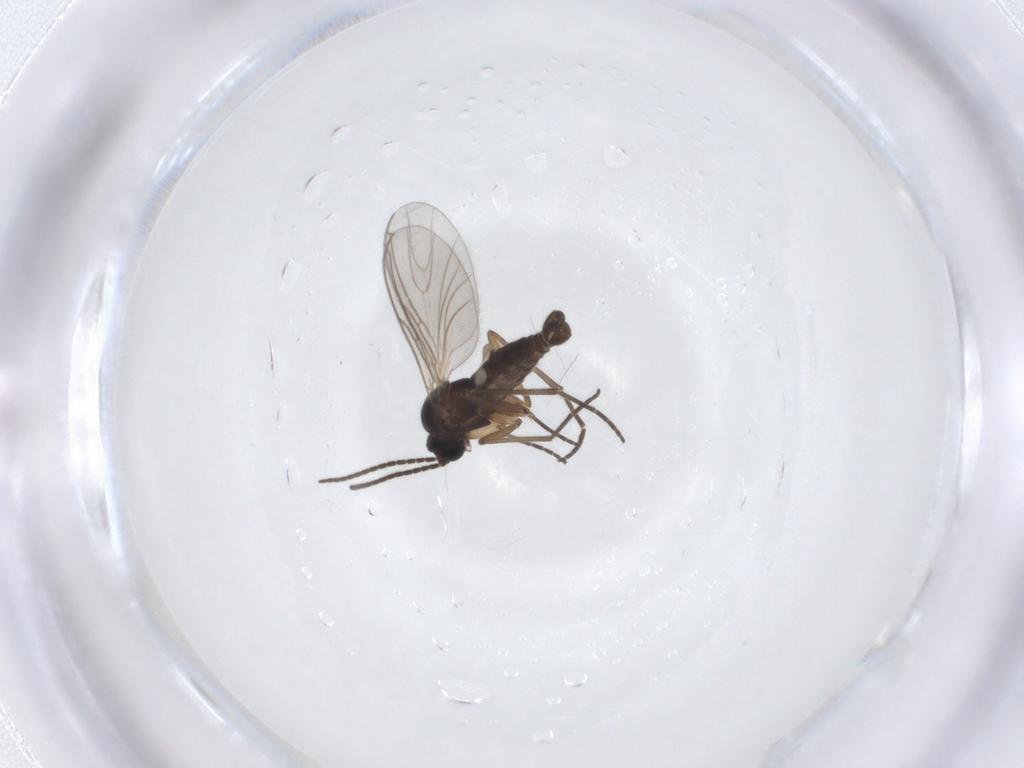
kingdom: Animalia
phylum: Arthropoda
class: Insecta
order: Diptera
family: Sciaridae
